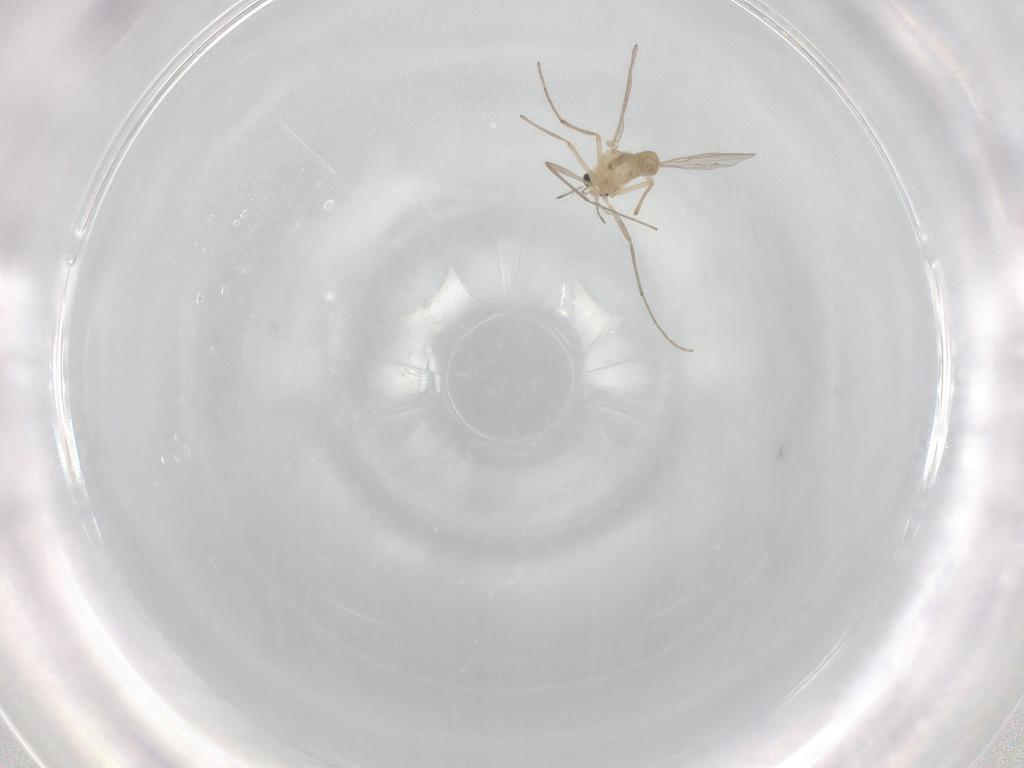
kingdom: Animalia
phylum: Arthropoda
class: Insecta
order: Diptera
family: Chironomidae
